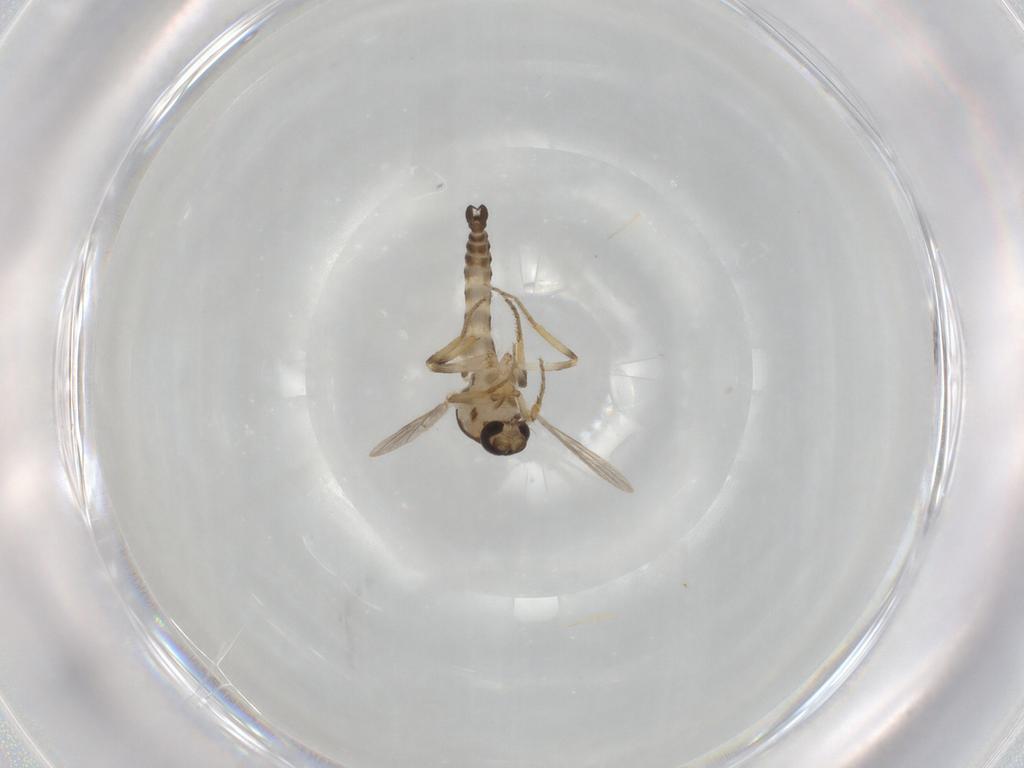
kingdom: Animalia
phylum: Arthropoda
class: Insecta
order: Diptera
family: Ceratopogonidae
